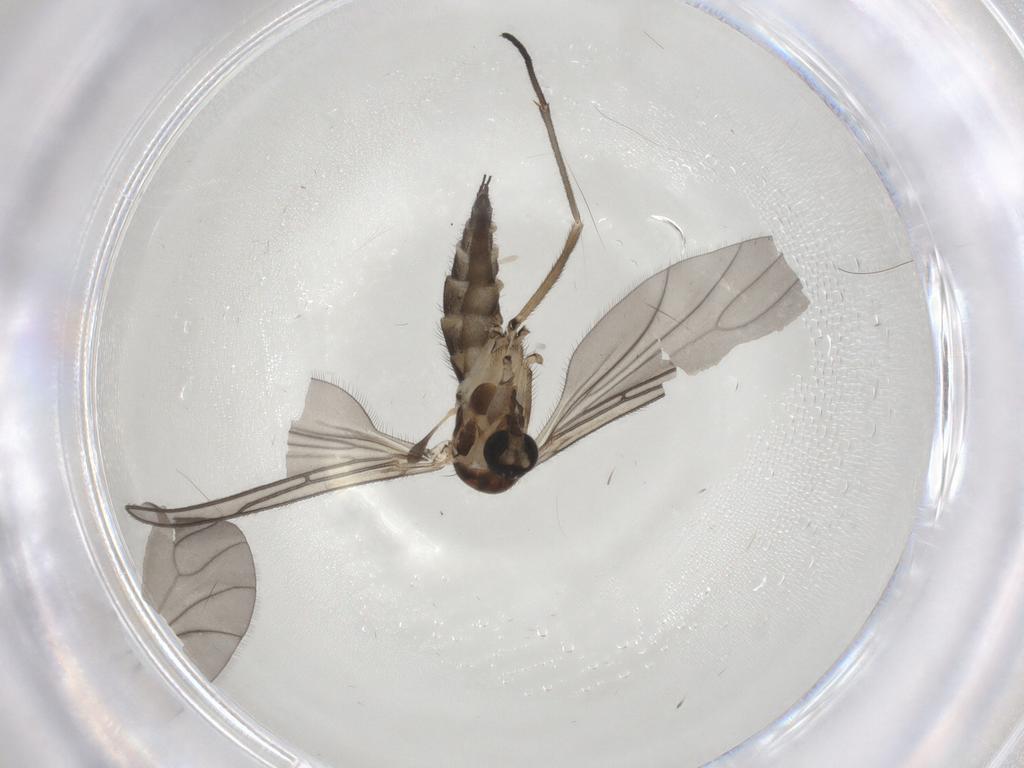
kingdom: Animalia
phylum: Arthropoda
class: Insecta
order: Diptera
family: Sciaridae
